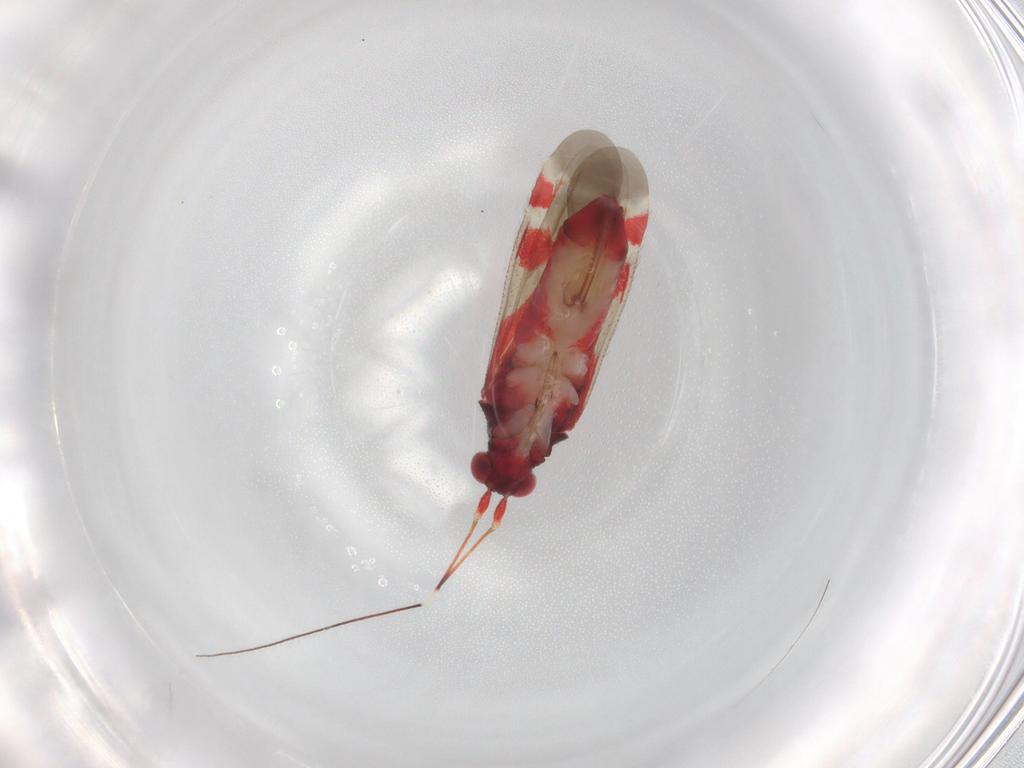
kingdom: Animalia
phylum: Arthropoda
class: Insecta
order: Hemiptera
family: Miridae
